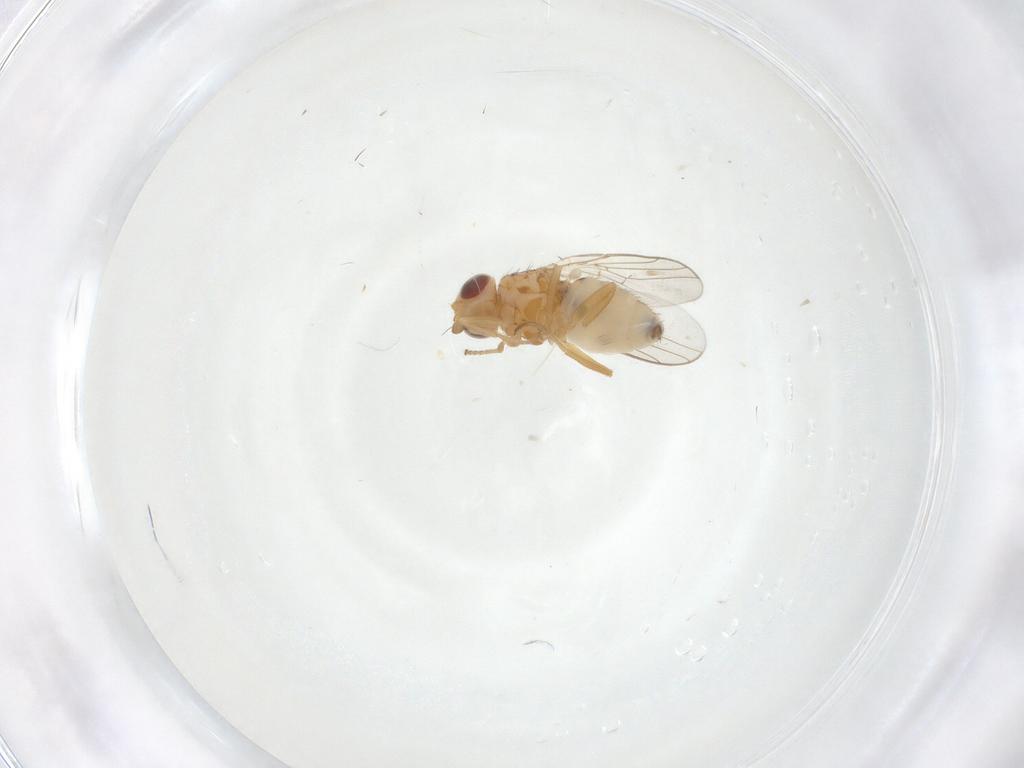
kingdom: Animalia
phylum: Arthropoda
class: Insecta
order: Diptera
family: Chloropidae
